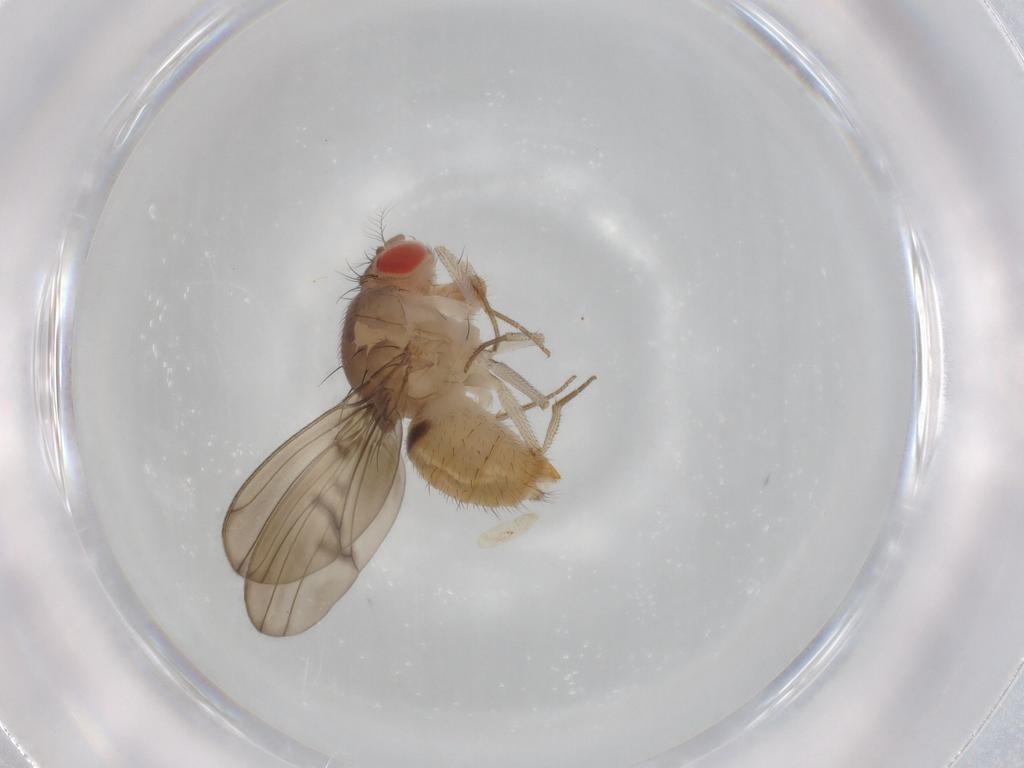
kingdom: Animalia
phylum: Arthropoda
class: Insecta
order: Diptera
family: Drosophilidae
